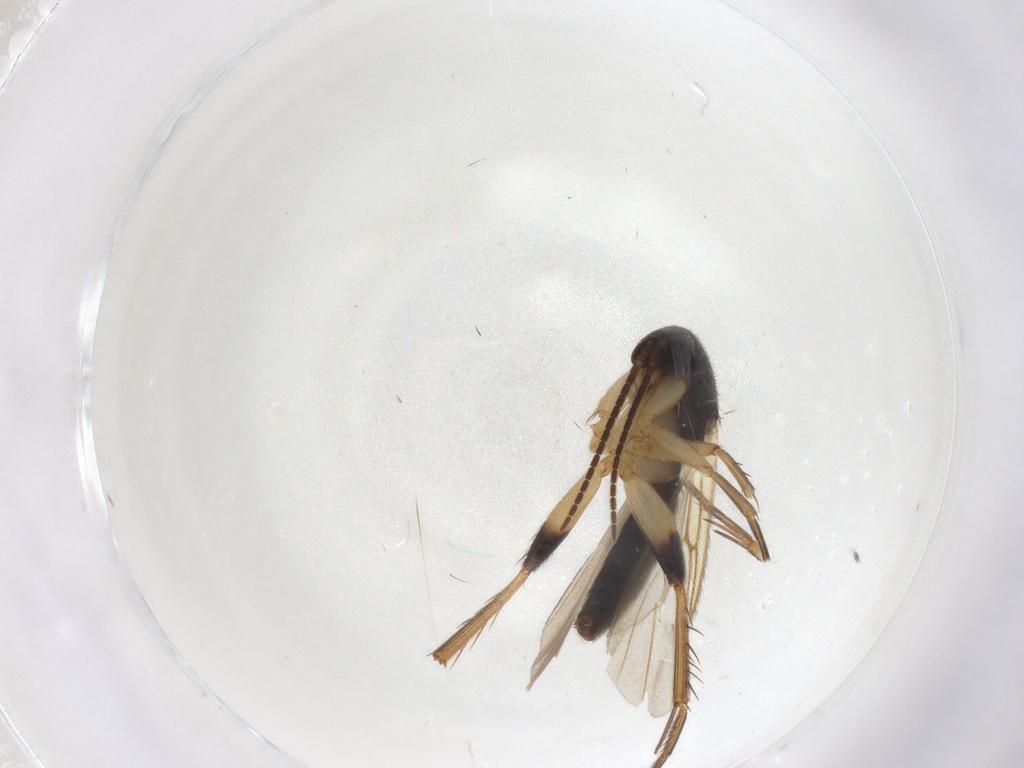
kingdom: Animalia
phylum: Arthropoda
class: Insecta
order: Diptera
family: Mycetophilidae
